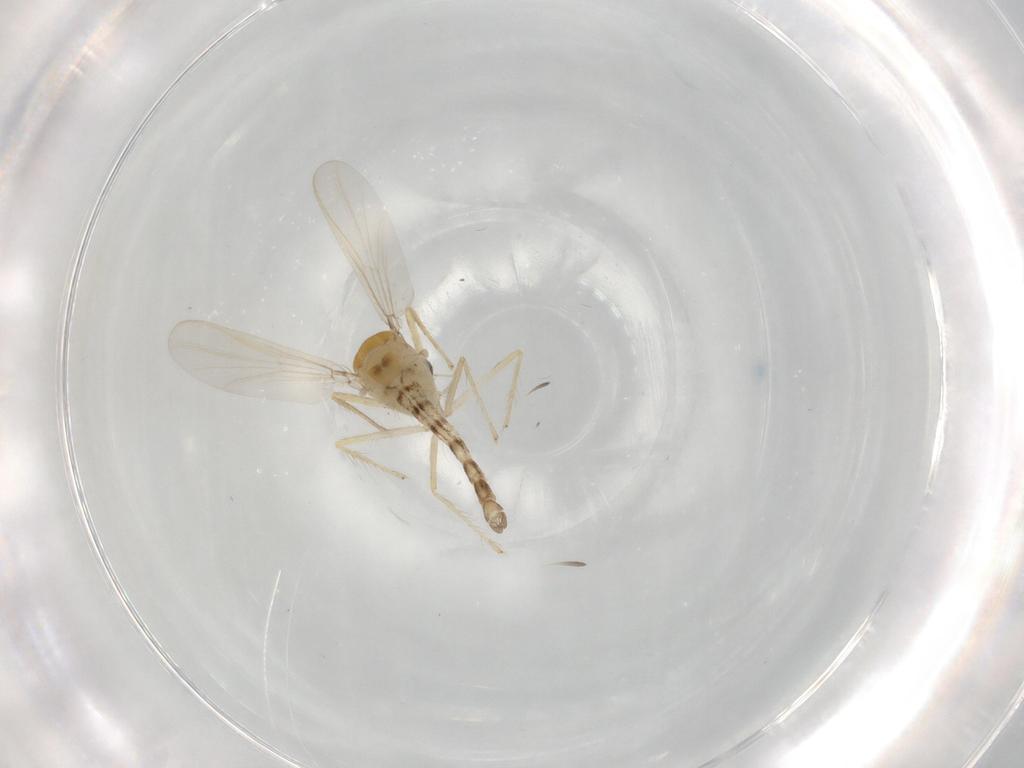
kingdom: Animalia
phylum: Arthropoda
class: Insecta
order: Diptera
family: Chironomidae
